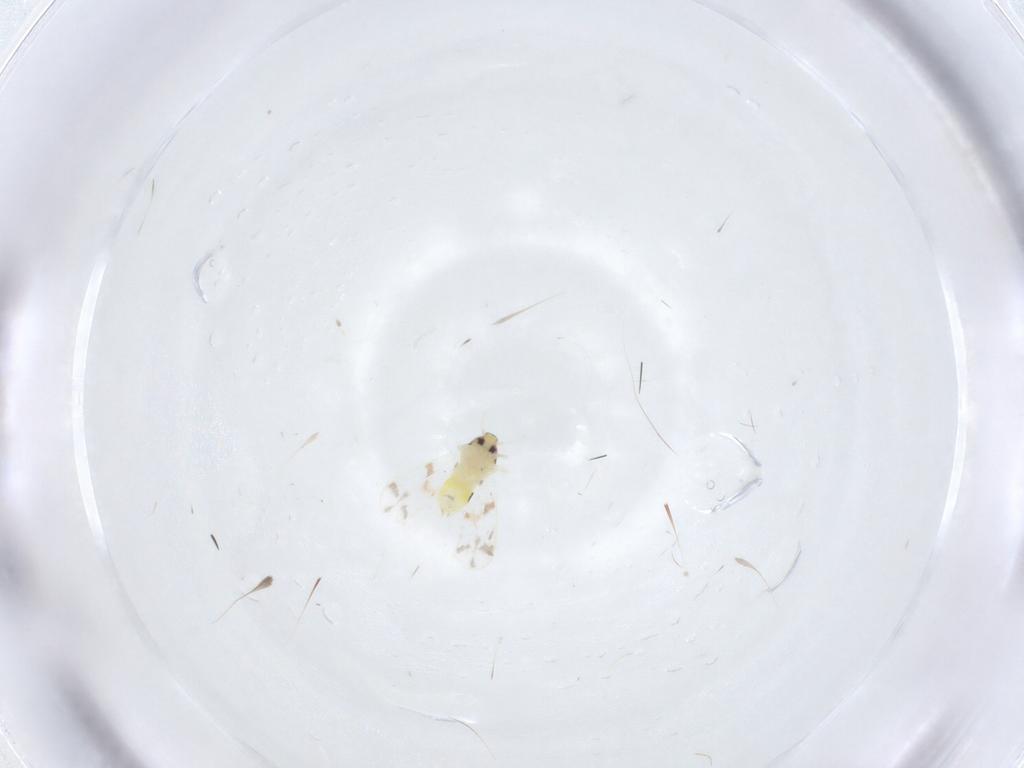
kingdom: Animalia
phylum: Arthropoda
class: Insecta
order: Hemiptera
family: Aleyrodidae
